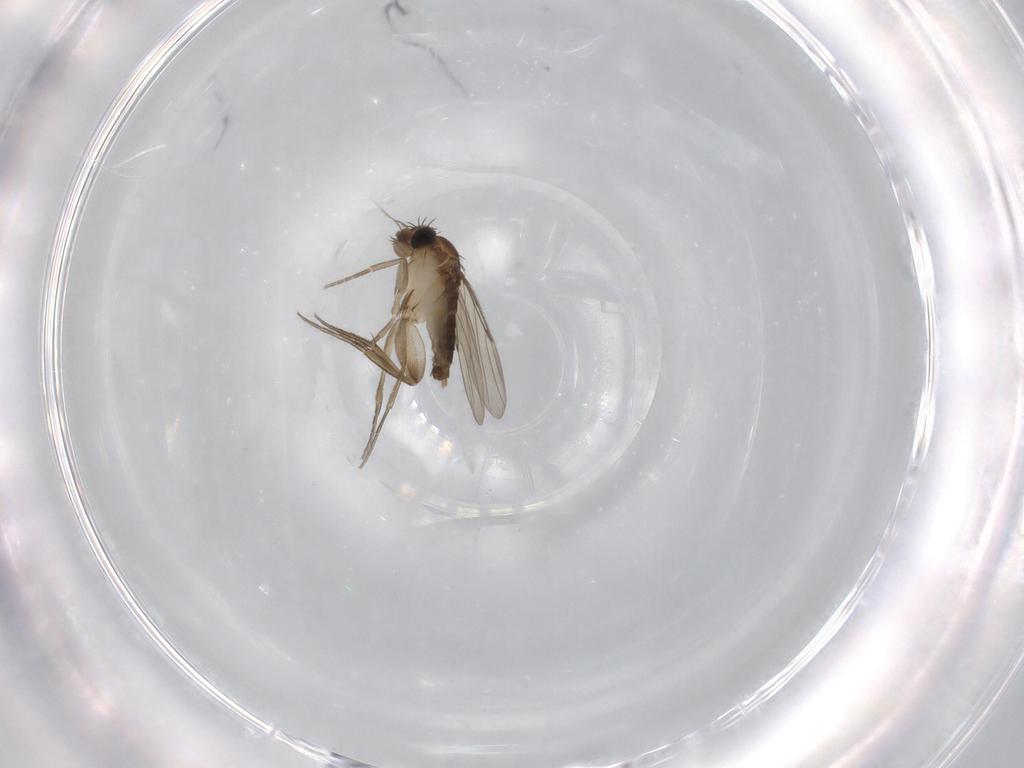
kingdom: Animalia
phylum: Arthropoda
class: Insecta
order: Diptera
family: Phoridae
